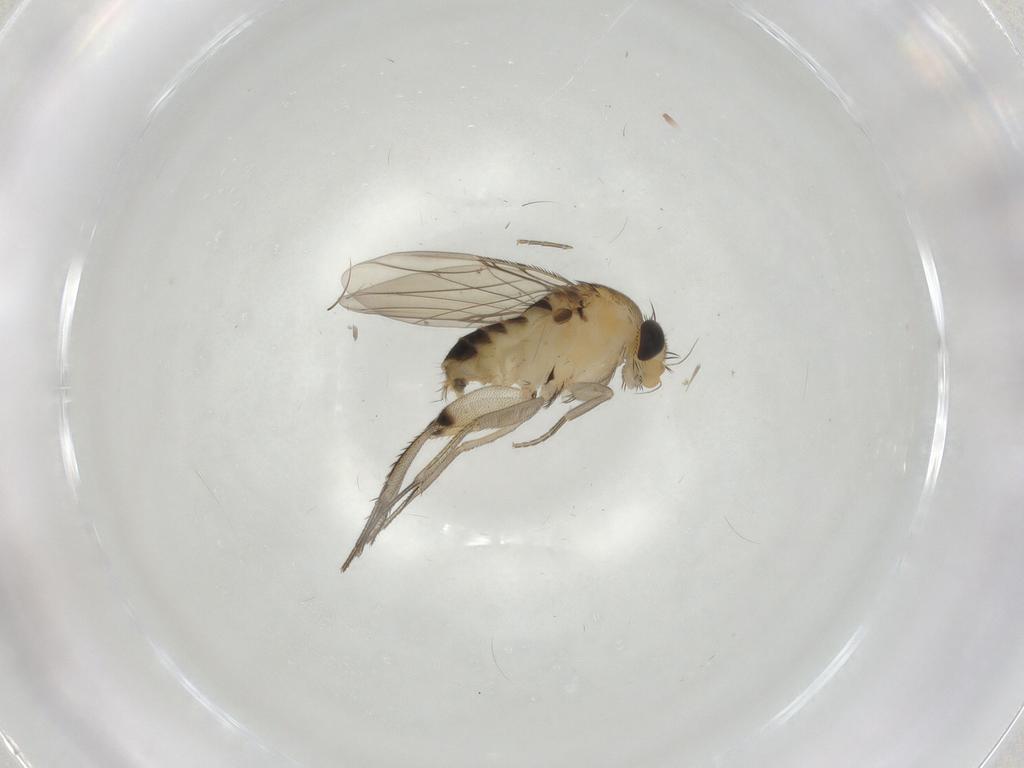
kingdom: Animalia
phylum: Arthropoda
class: Insecta
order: Diptera
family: Phoridae
